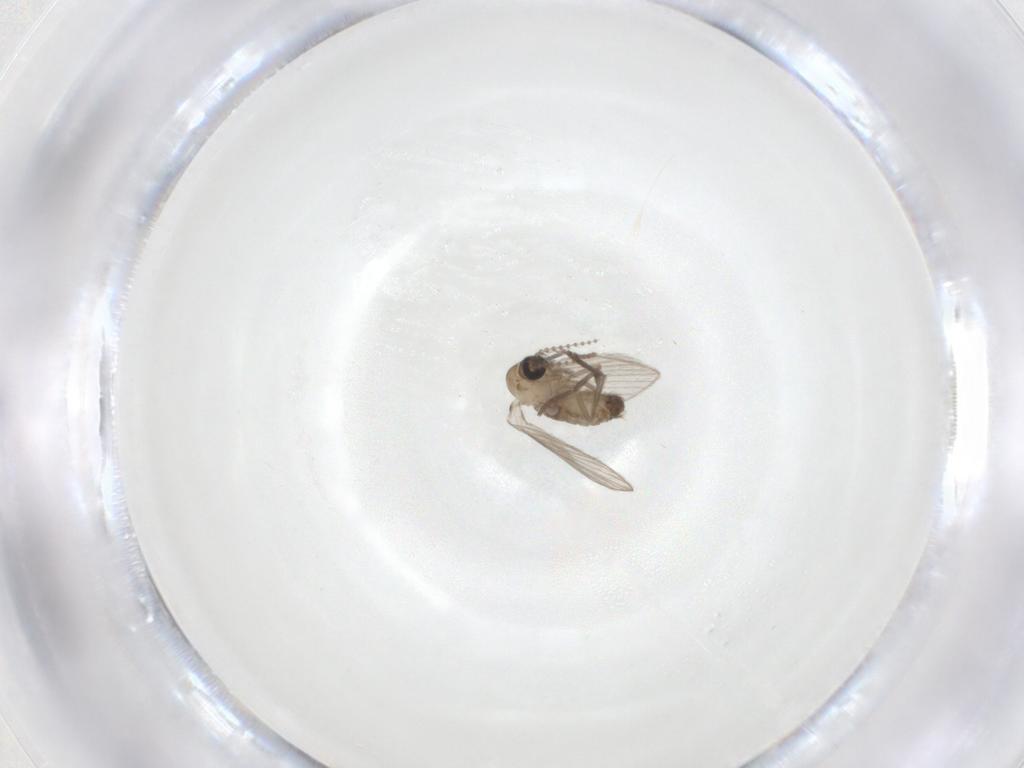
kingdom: Animalia
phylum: Arthropoda
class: Insecta
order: Diptera
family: Psychodidae
